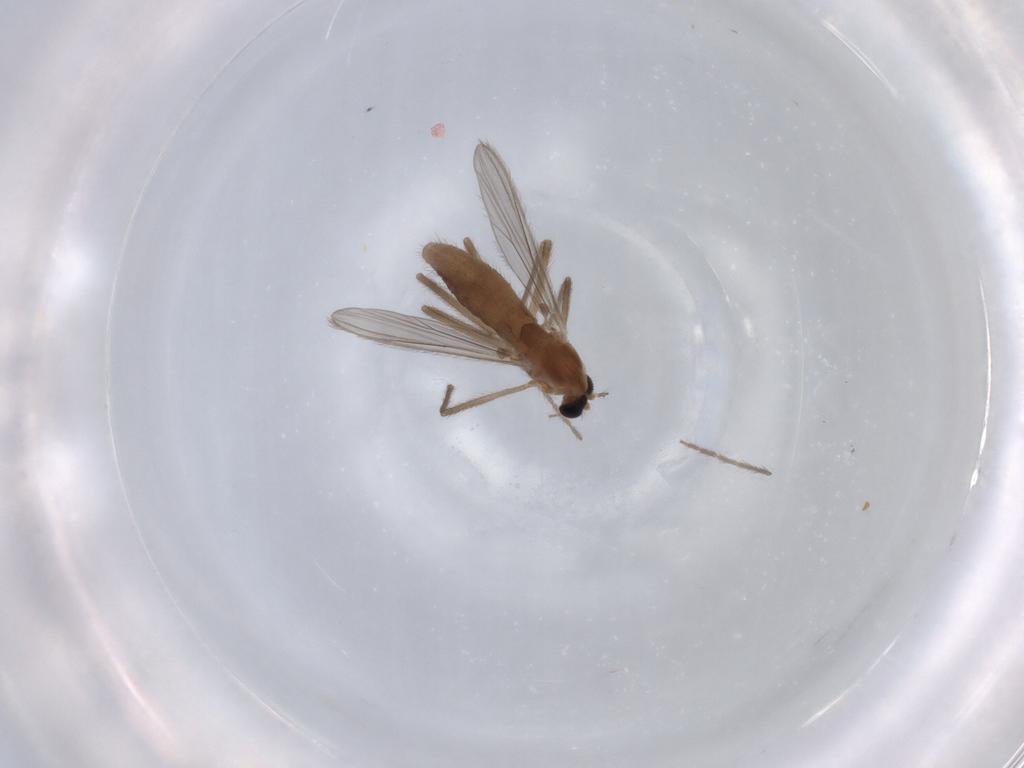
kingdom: Animalia
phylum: Arthropoda
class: Insecta
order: Diptera
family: Chironomidae
